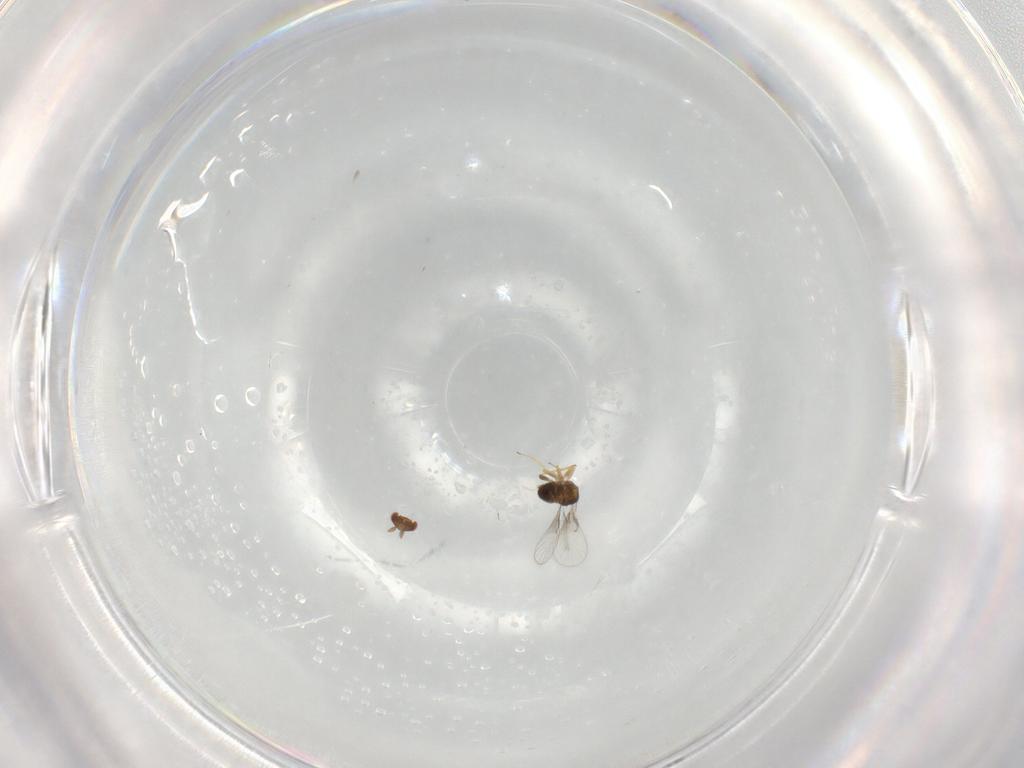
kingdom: Animalia
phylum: Arthropoda
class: Insecta
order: Hymenoptera
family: Trichogrammatidae
